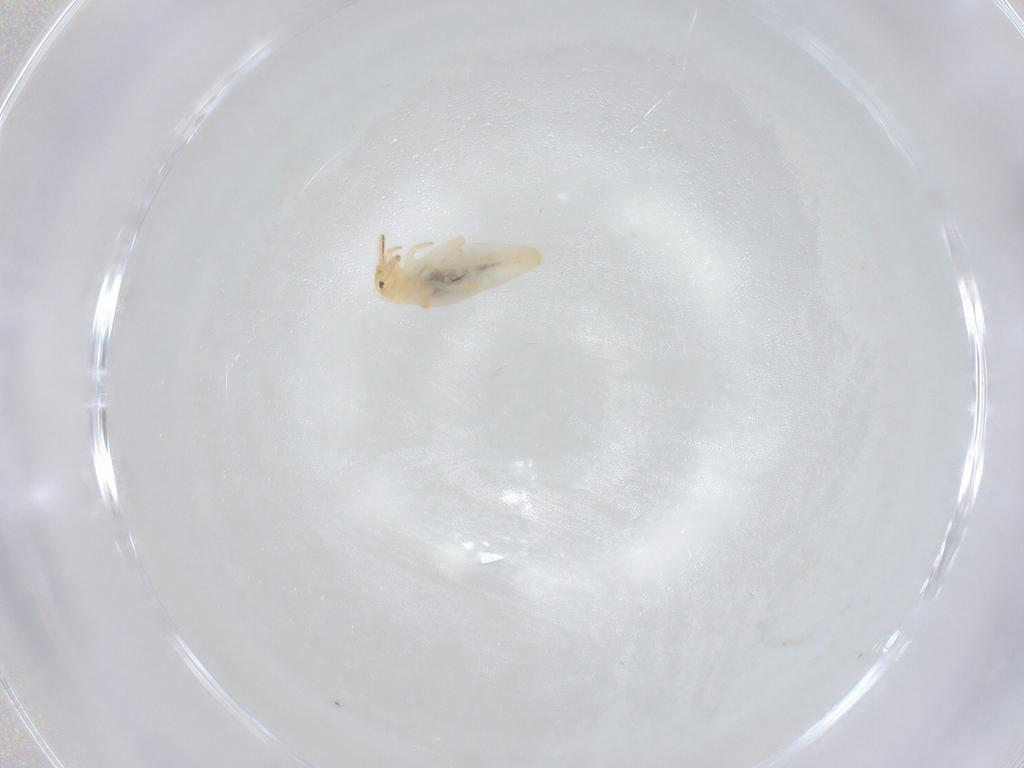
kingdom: Animalia
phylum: Arthropoda
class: Collembola
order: Entomobryomorpha
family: Entomobryidae
